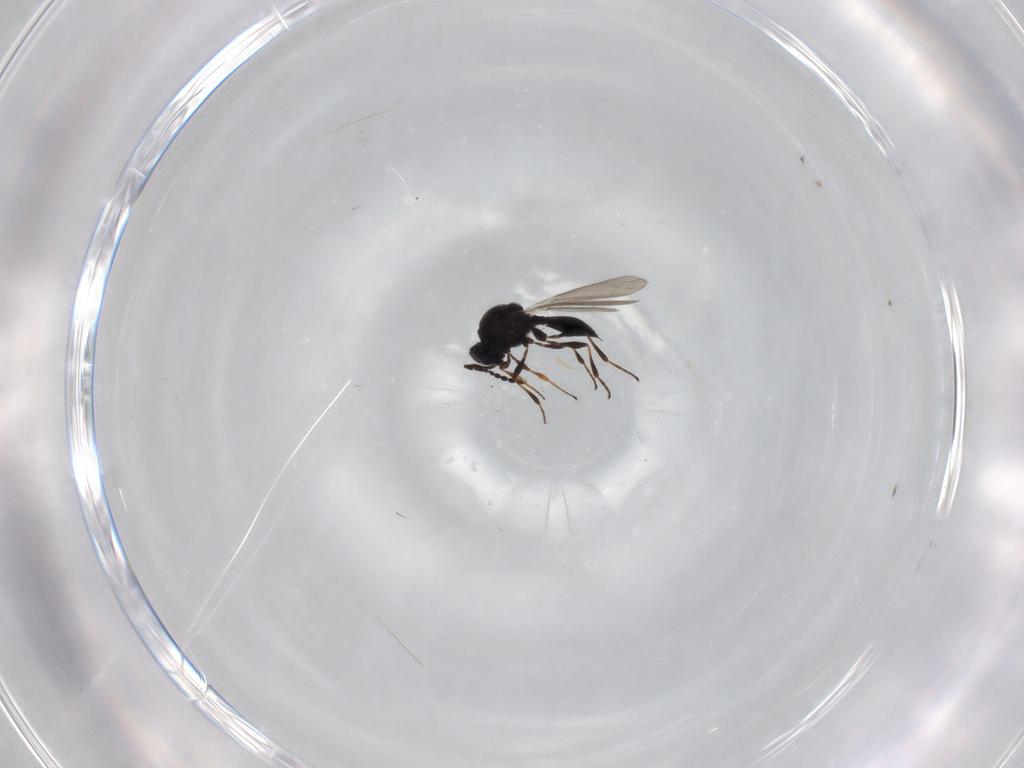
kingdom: Animalia
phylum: Arthropoda
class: Insecta
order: Hymenoptera
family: Platygastridae
